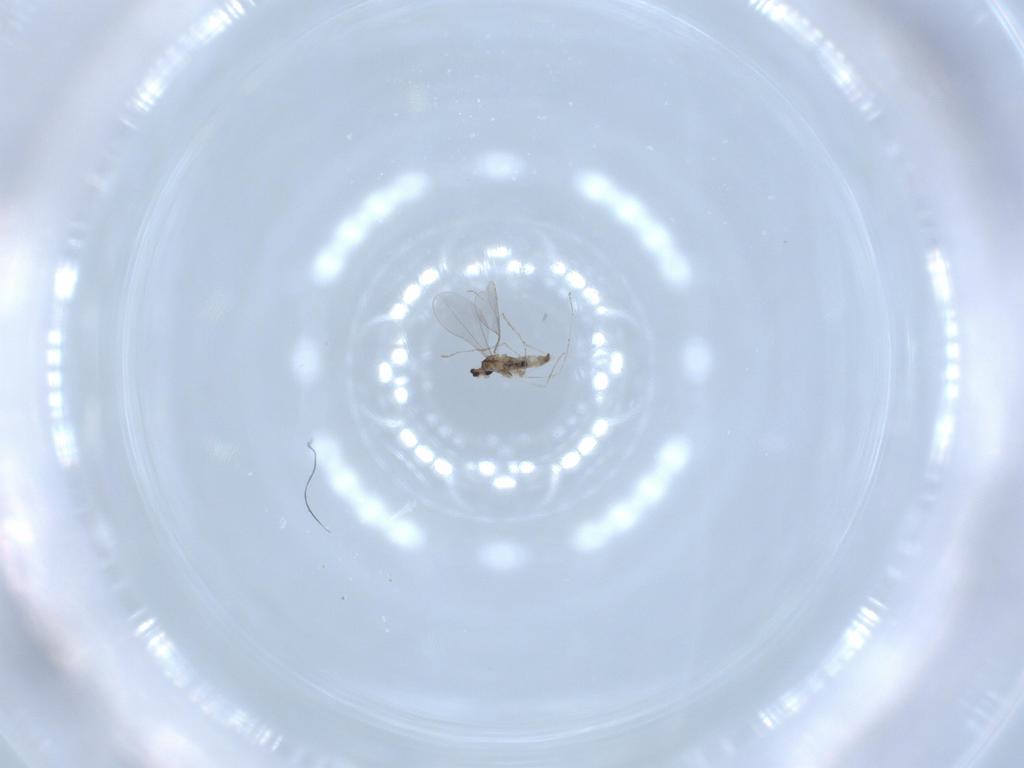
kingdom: Animalia
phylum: Arthropoda
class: Insecta
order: Diptera
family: Cecidomyiidae
